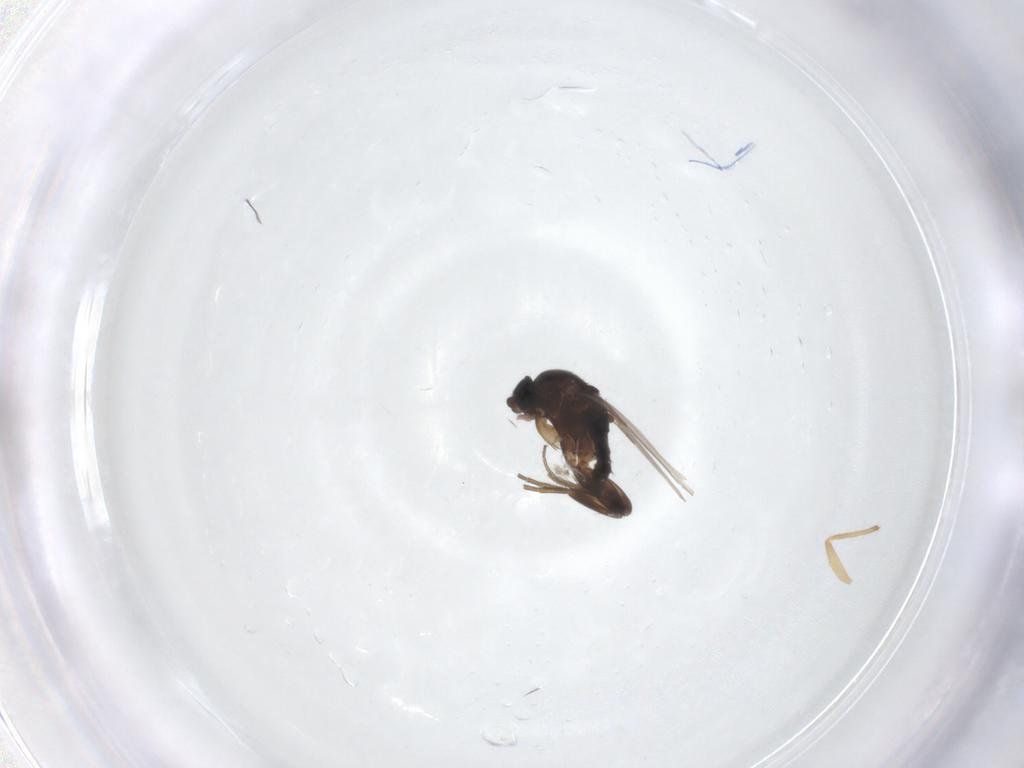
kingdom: Animalia
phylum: Arthropoda
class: Insecta
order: Diptera
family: Phoridae
